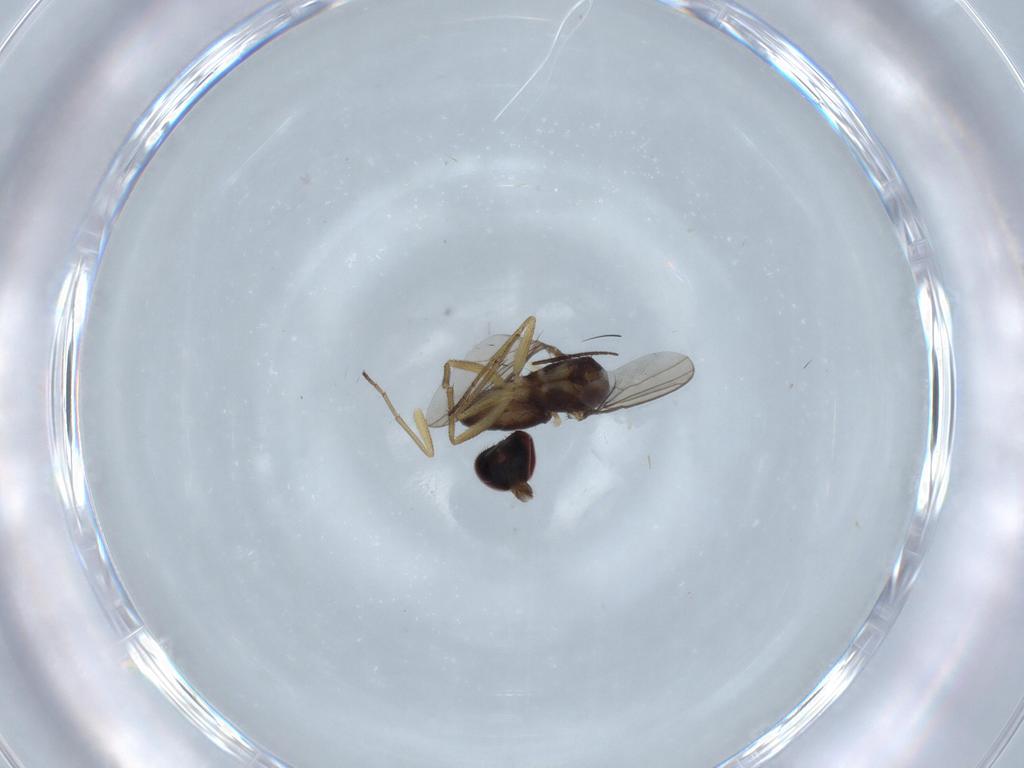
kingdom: Animalia
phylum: Arthropoda
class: Insecta
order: Diptera
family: Dolichopodidae
